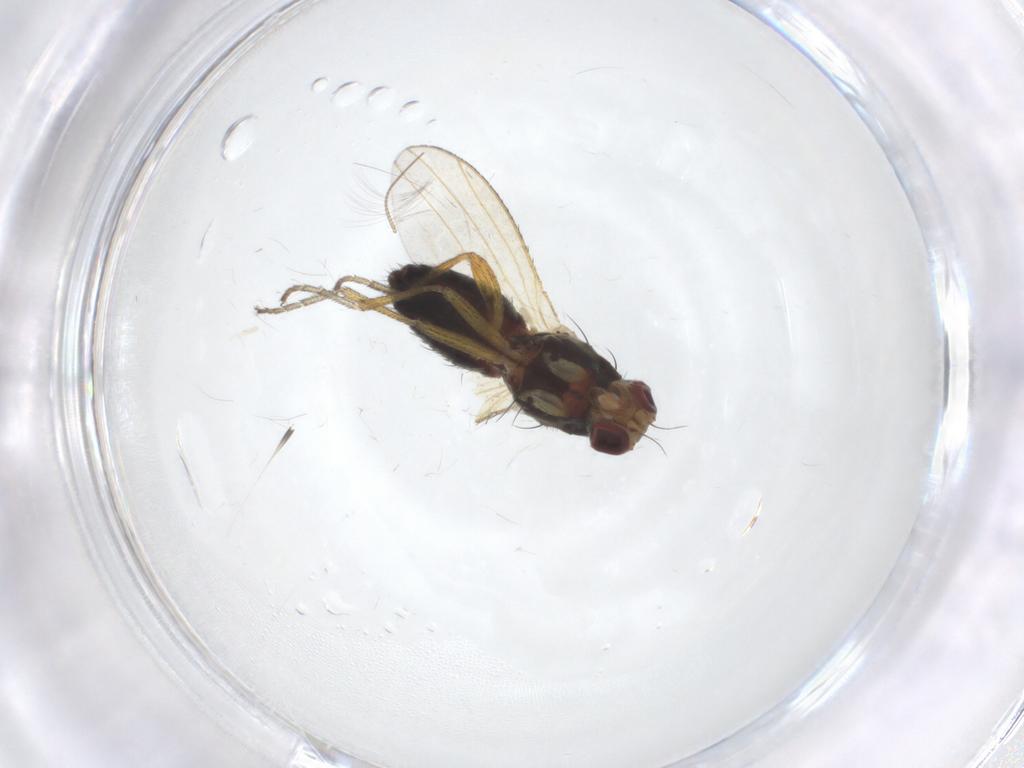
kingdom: Animalia
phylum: Arthropoda
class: Insecta
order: Diptera
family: Heleomyzidae
